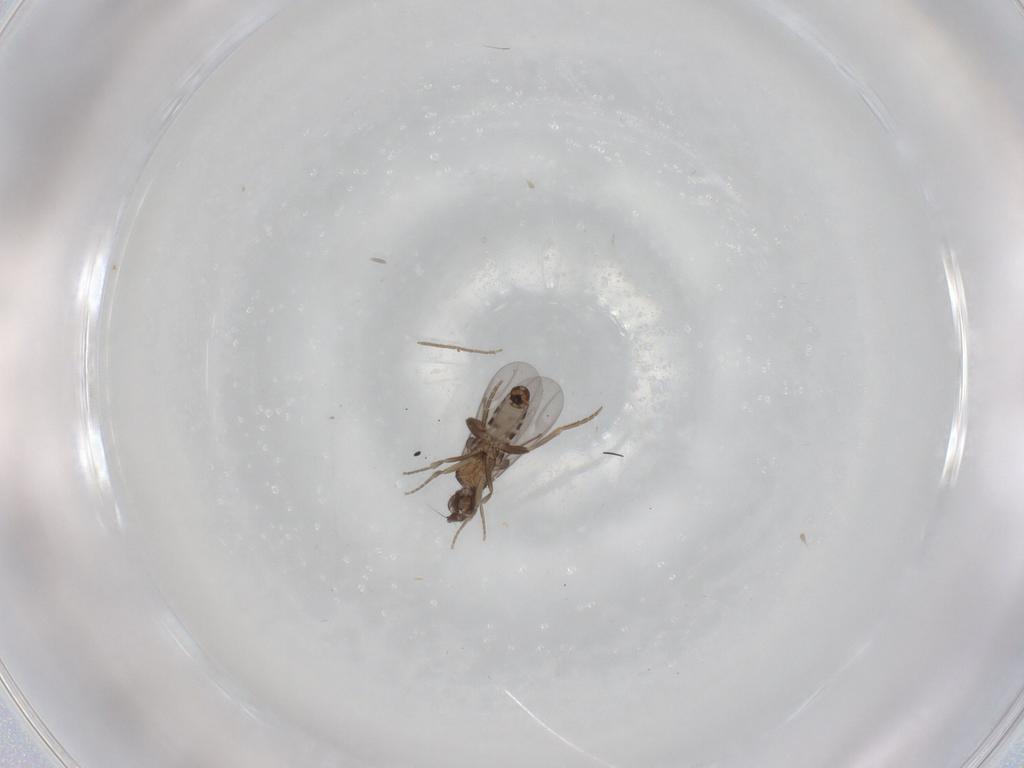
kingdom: Animalia
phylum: Arthropoda
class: Insecta
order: Diptera
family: Chironomidae
